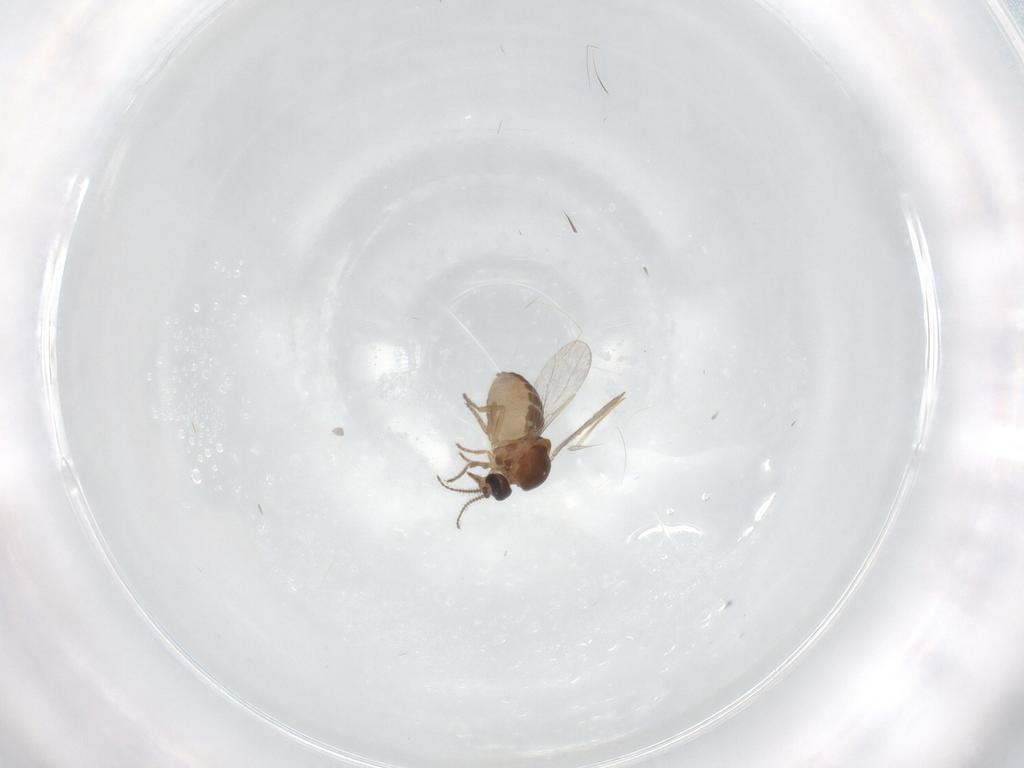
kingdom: Animalia
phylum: Arthropoda
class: Insecta
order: Diptera
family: Ceratopogonidae
